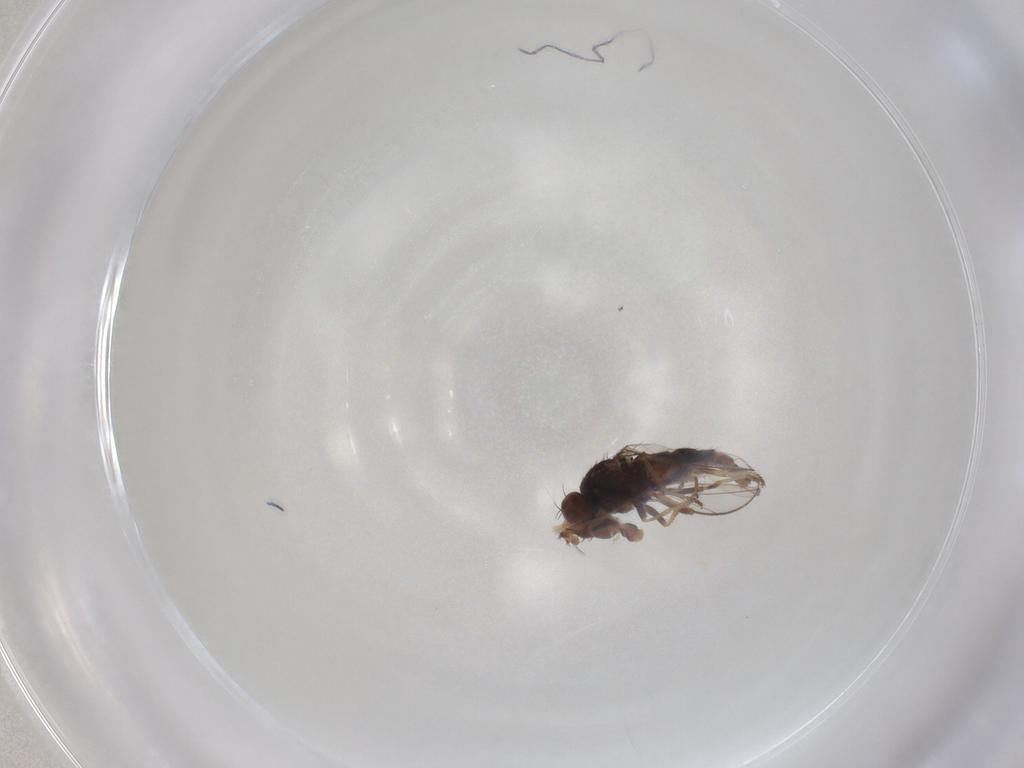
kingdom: Animalia
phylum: Arthropoda
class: Insecta
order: Diptera
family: Ephydridae
